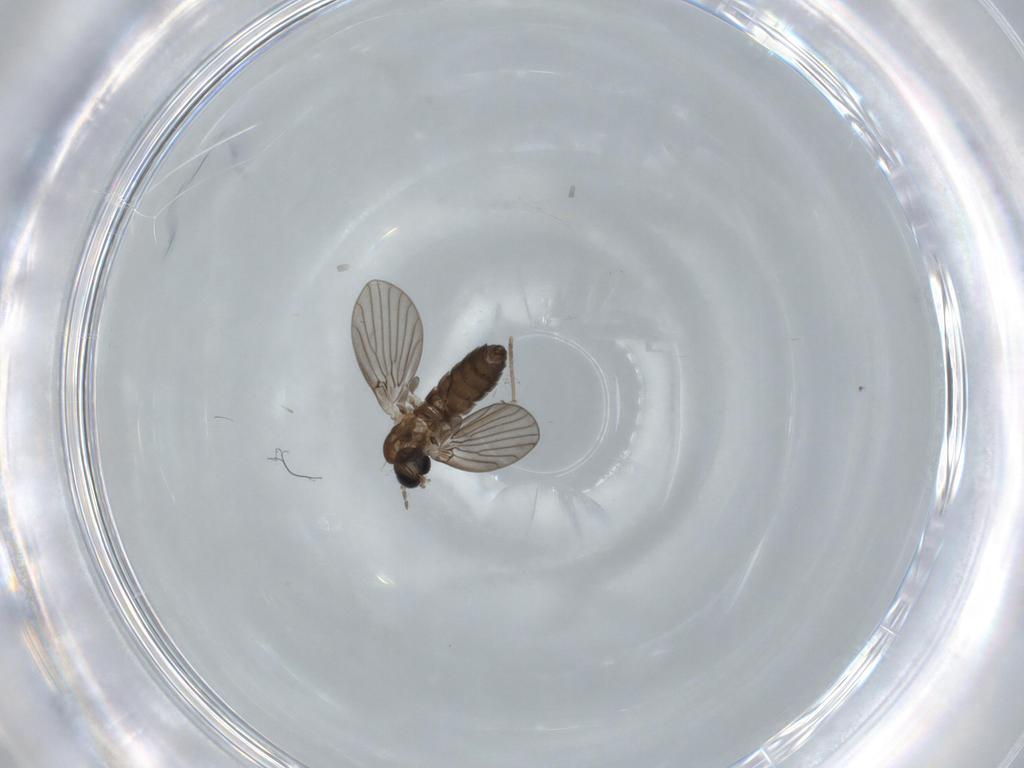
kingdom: Animalia
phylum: Arthropoda
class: Insecta
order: Diptera
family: Psychodidae
